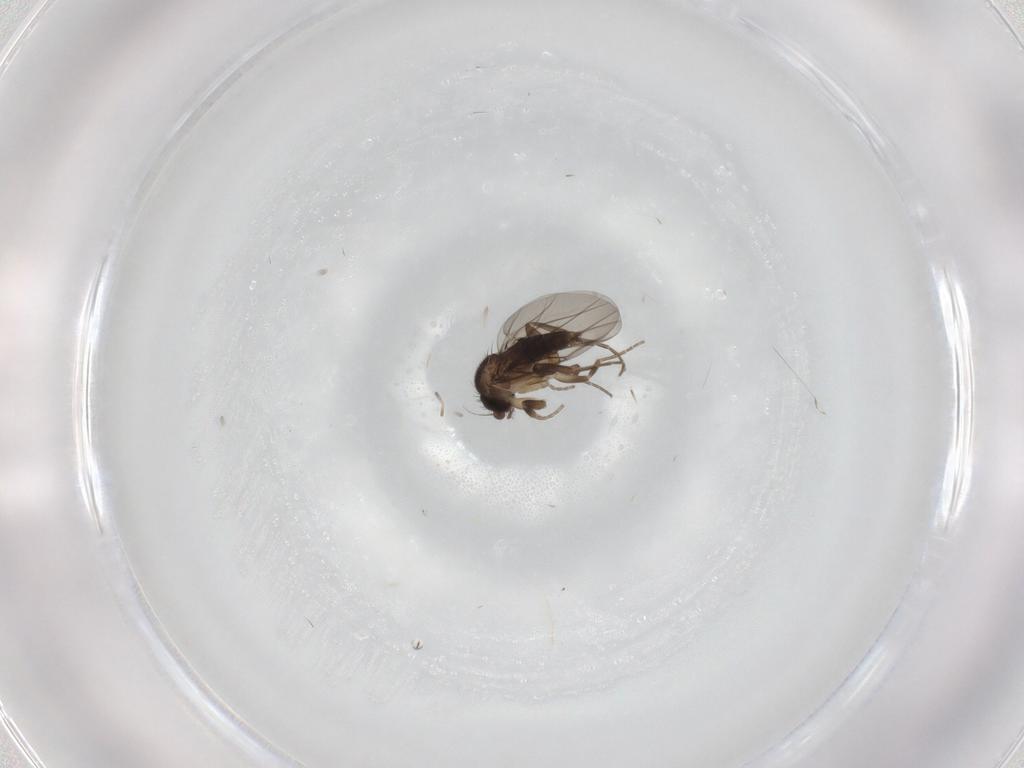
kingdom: Animalia
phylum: Arthropoda
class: Insecta
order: Diptera
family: Phoridae
